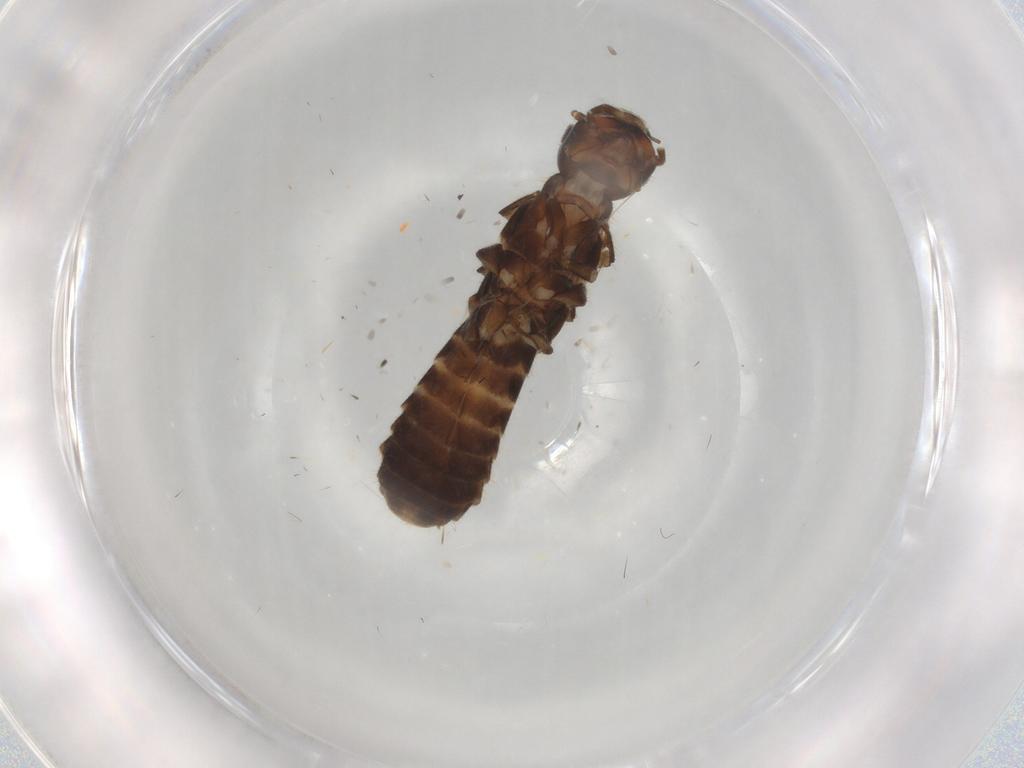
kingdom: Animalia
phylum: Arthropoda
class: Insecta
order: Blattodea
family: Termitidae
